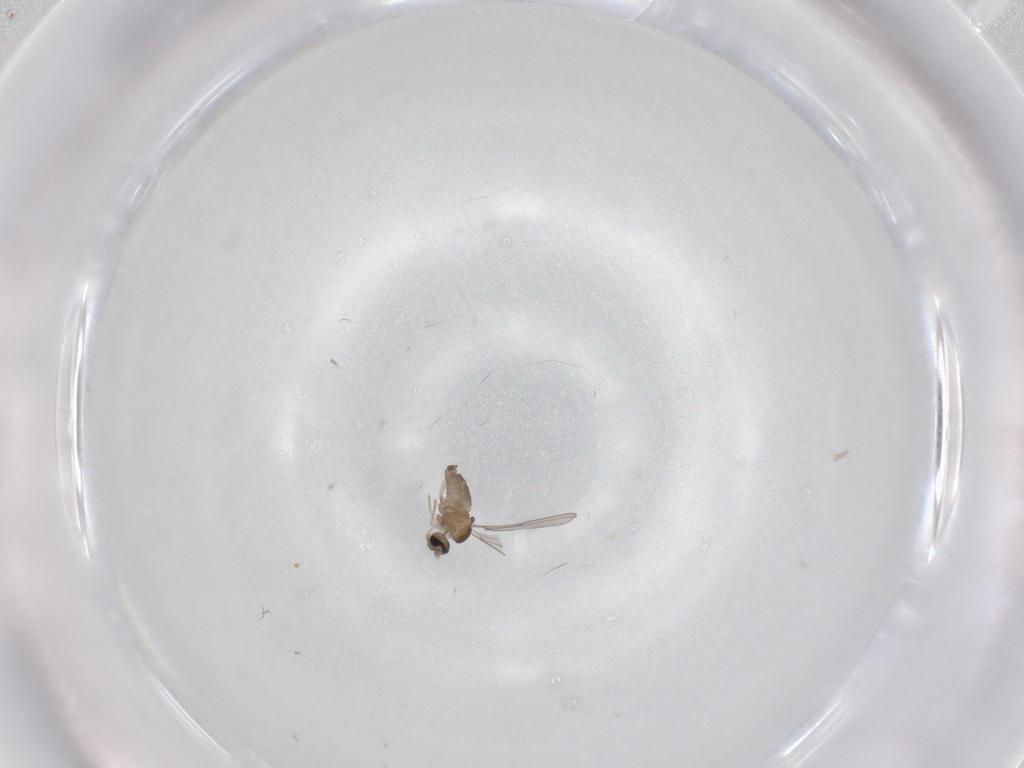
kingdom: Animalia
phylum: Arthropoda
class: Insecta
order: Diptera
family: Cecidomyiidae
